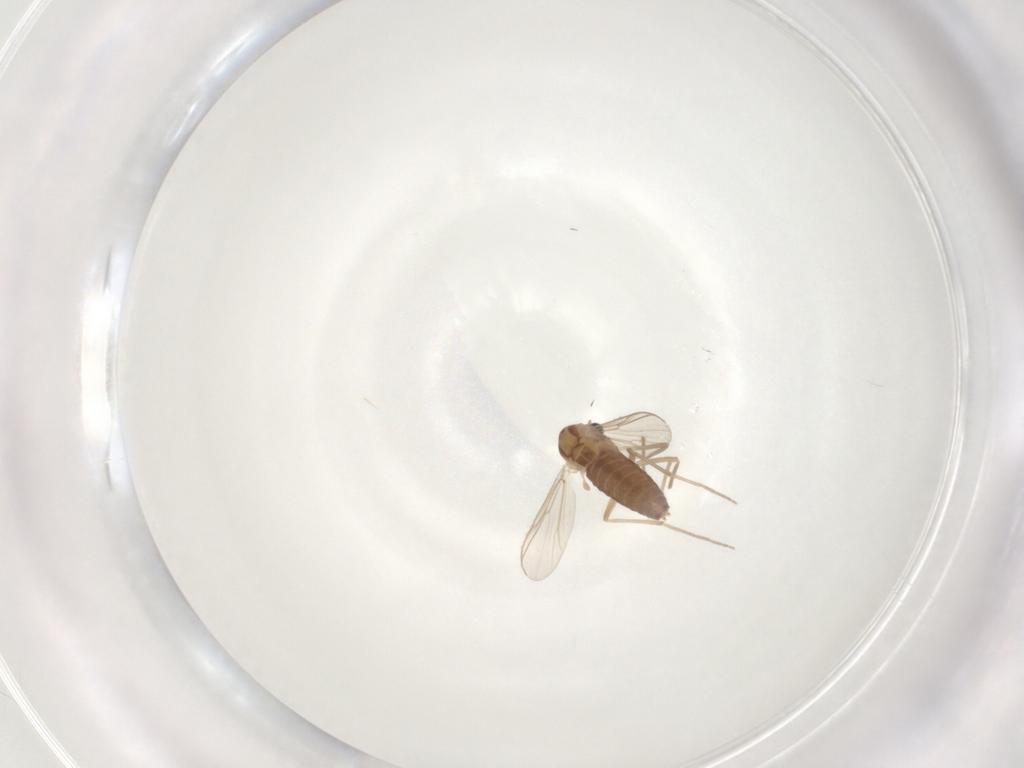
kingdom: Animalia
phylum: Arthropoda
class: Insecta
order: Diptera
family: Chironomidae
